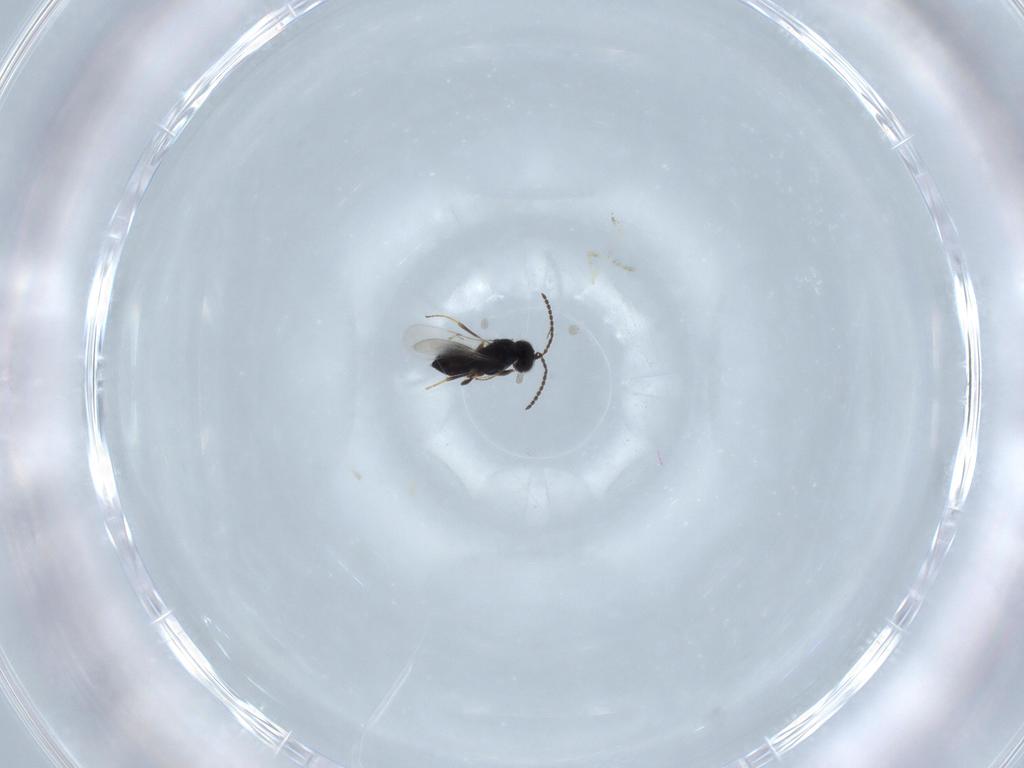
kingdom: Animalia
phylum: Arthropoda
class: Insecta
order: Hymenoptera
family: Scelionidae
